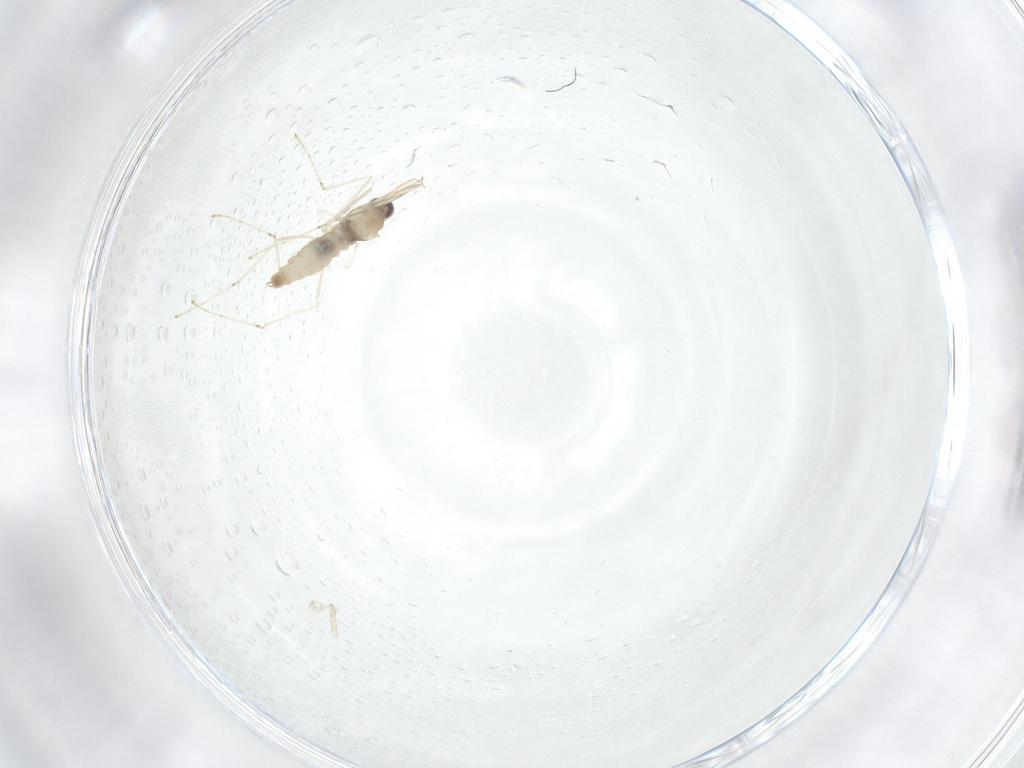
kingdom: Animalia
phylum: Arthropoda
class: Insecta
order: Diptera
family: Cecidomyiidae
